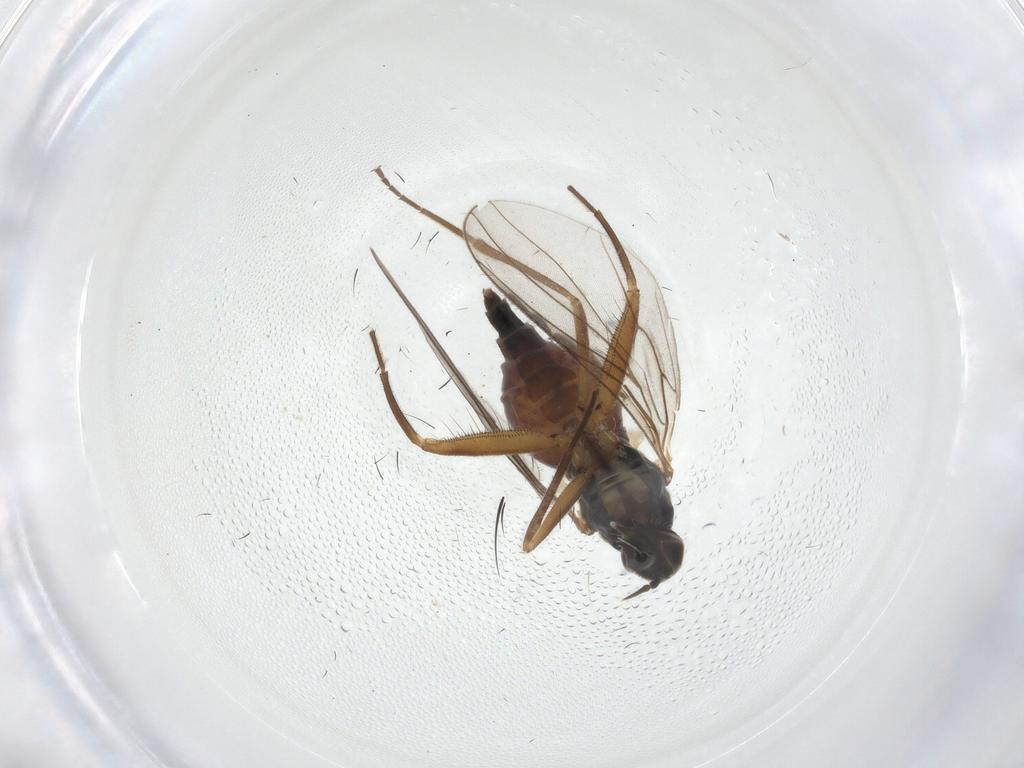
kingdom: Animalia
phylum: Arthropoda
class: Insecta
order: Diptera
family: Hybotidae
